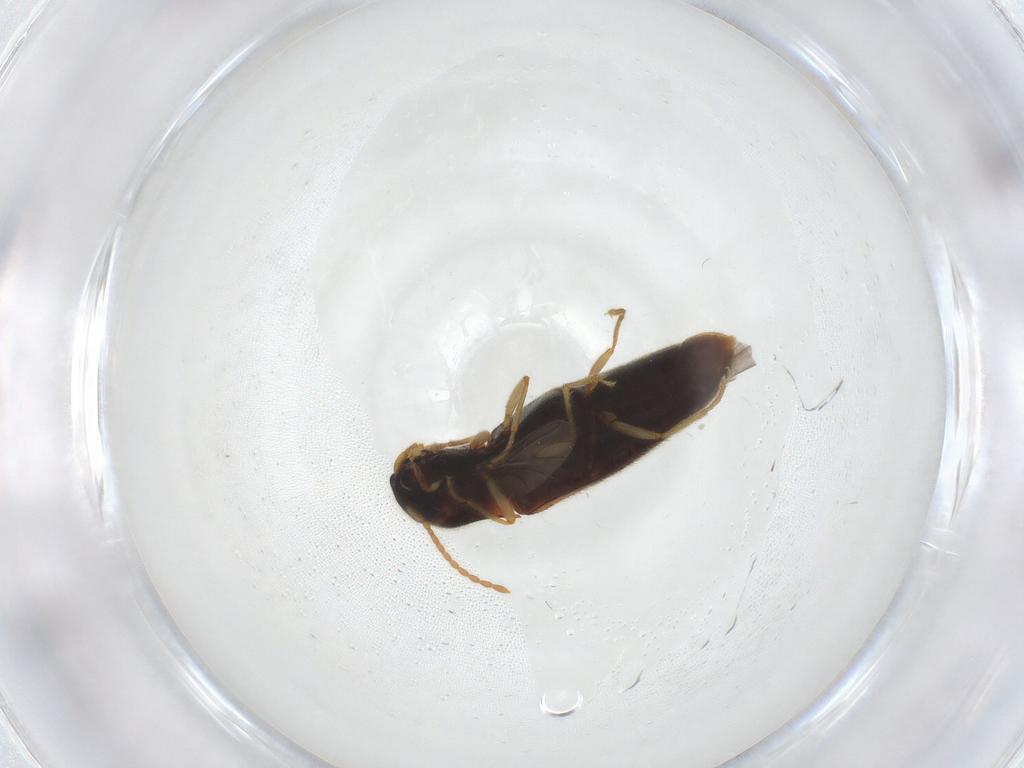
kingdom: Animalia
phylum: Arthropoda
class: Insecta
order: Coleoptera
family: Elateridae
